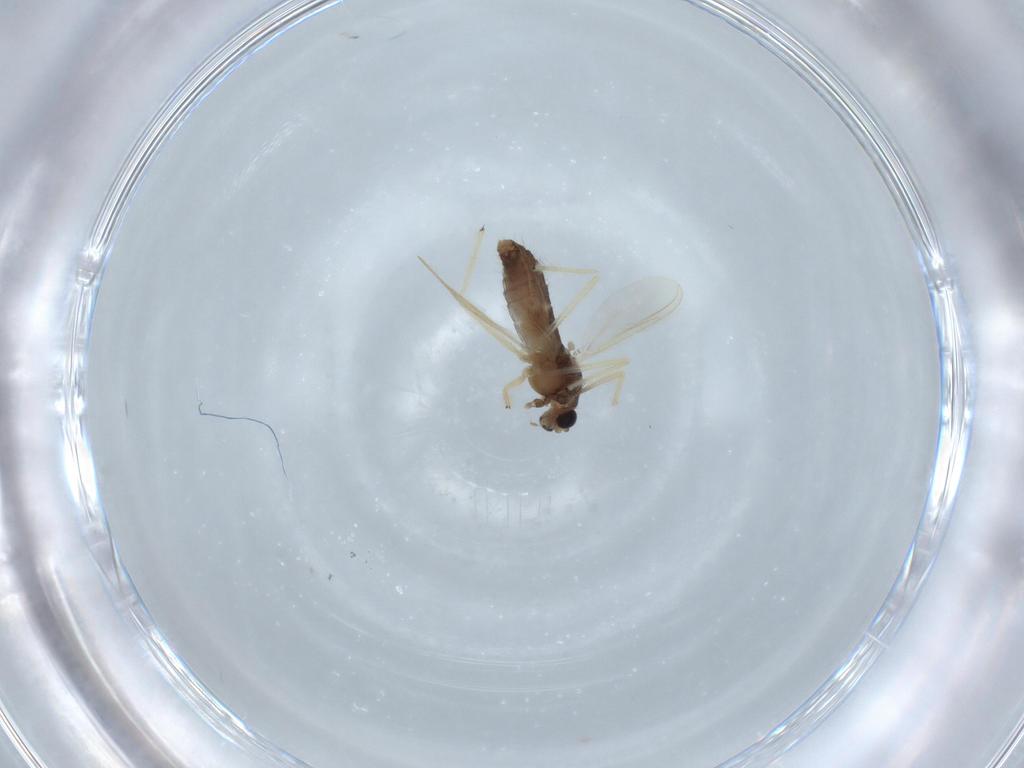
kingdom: Animalia
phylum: Arthropoda
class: Insecta
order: Diptera
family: Chironomidae
